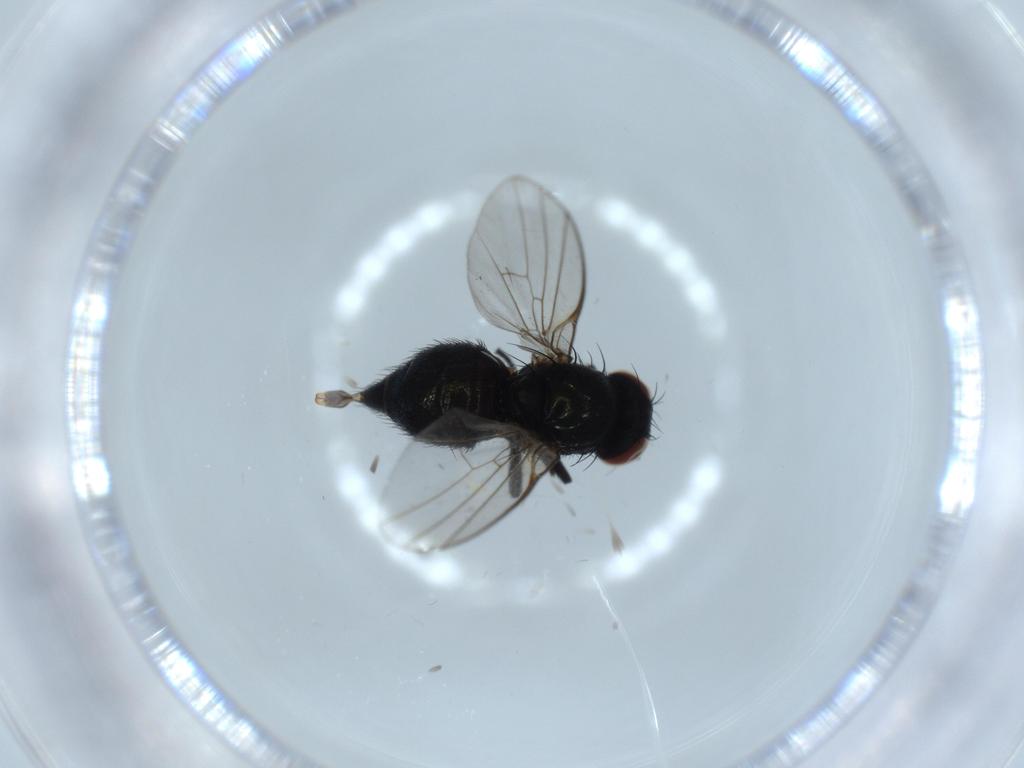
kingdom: Animalia
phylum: Arthropoda
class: Insecta
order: Diptera
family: Agromyzidae
